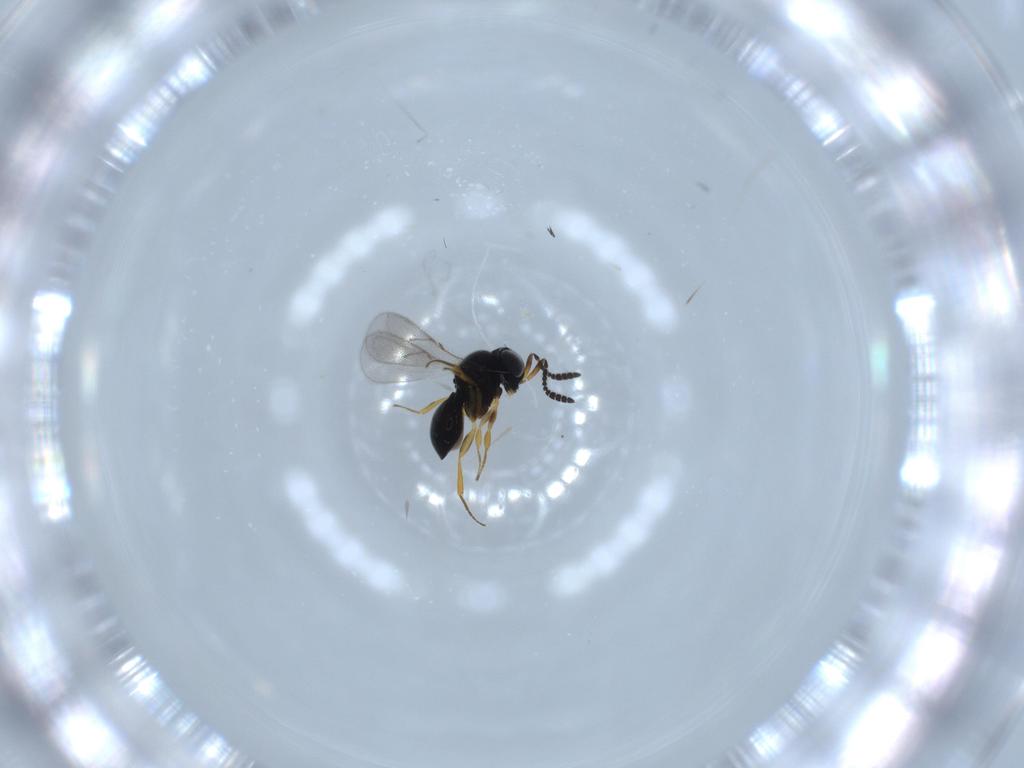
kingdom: Animalia
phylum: Arthropoda
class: Insecta
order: Hymenoptera
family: Scelionidae
